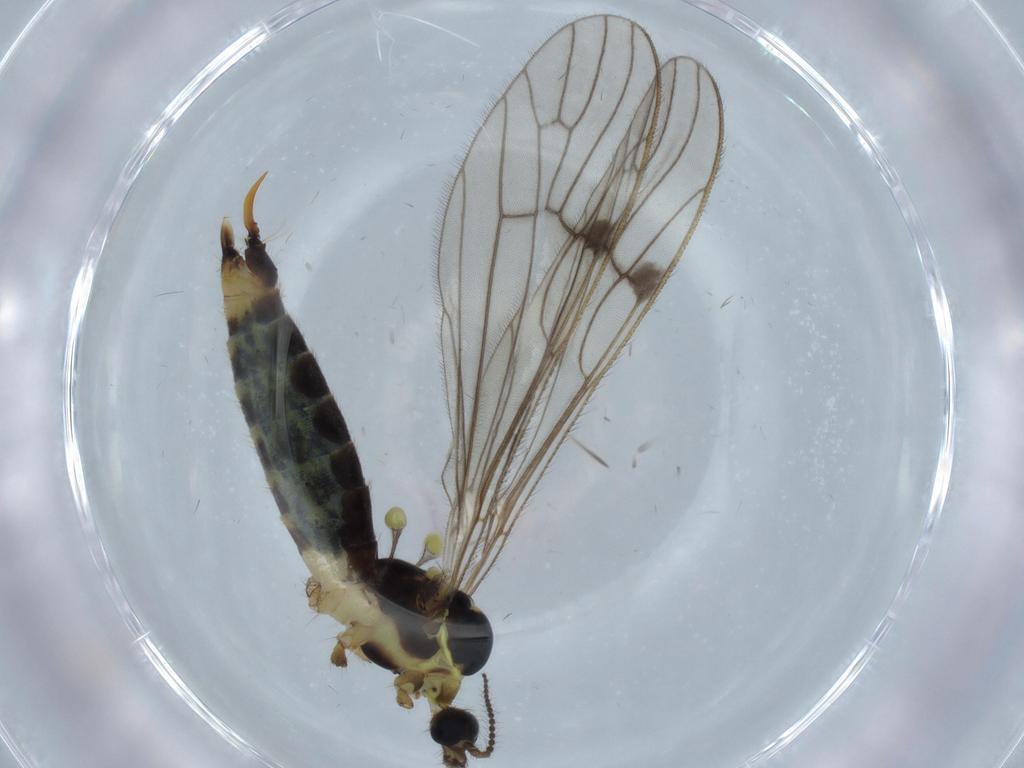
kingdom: Animalia
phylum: Arthropoda
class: Insecta
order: Diptera
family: Limoniidae
